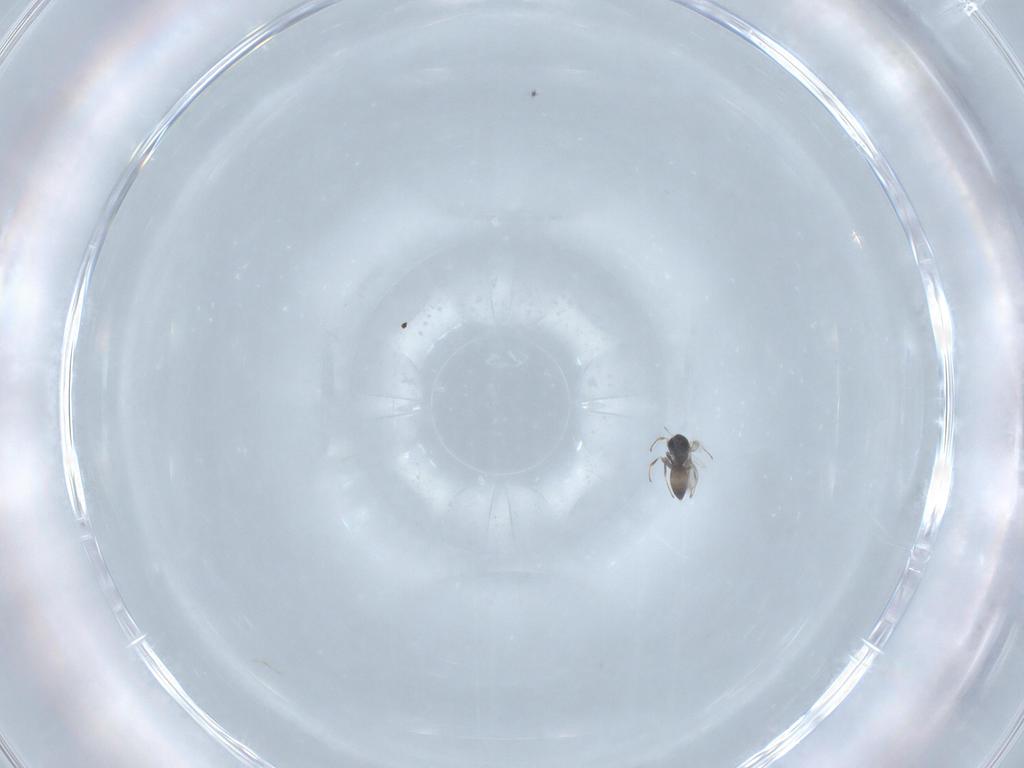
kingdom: Animalia
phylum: Arthropoda
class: Insecta
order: Hymenoptera
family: Scelionidae
